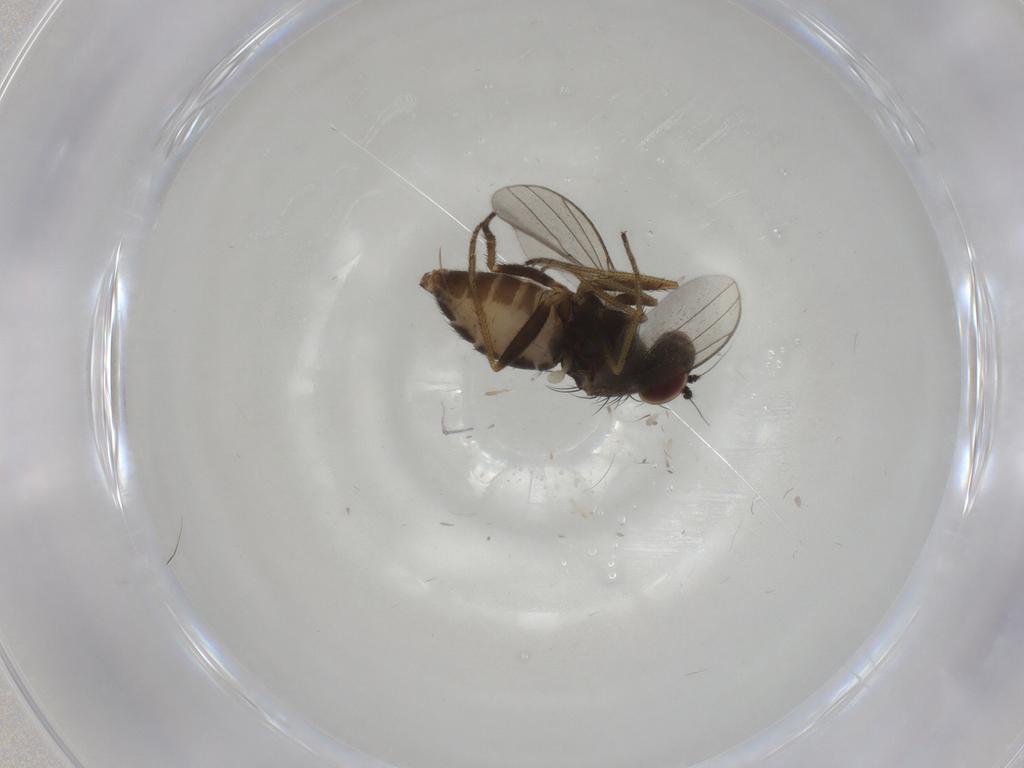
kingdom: Animalia
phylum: Arthropoda
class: Insecta
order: Diptera
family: Dolichopodidae
